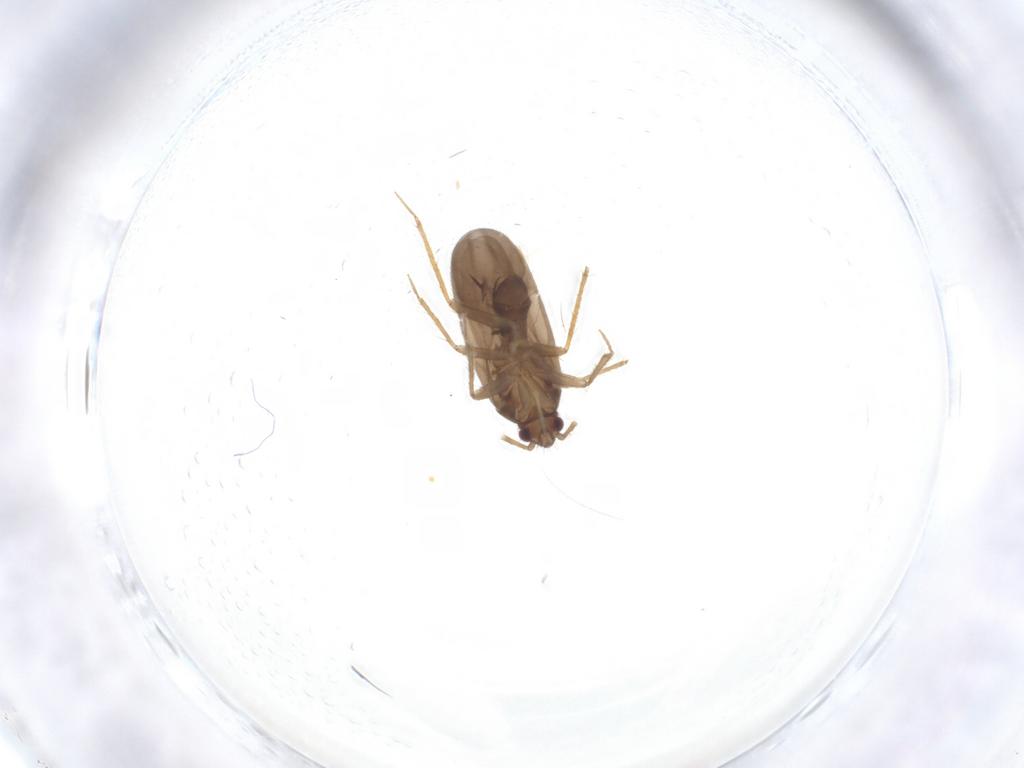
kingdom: Animalia
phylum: Arthropoda
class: Insecta
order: Hemiptera
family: Ceratocombidae
